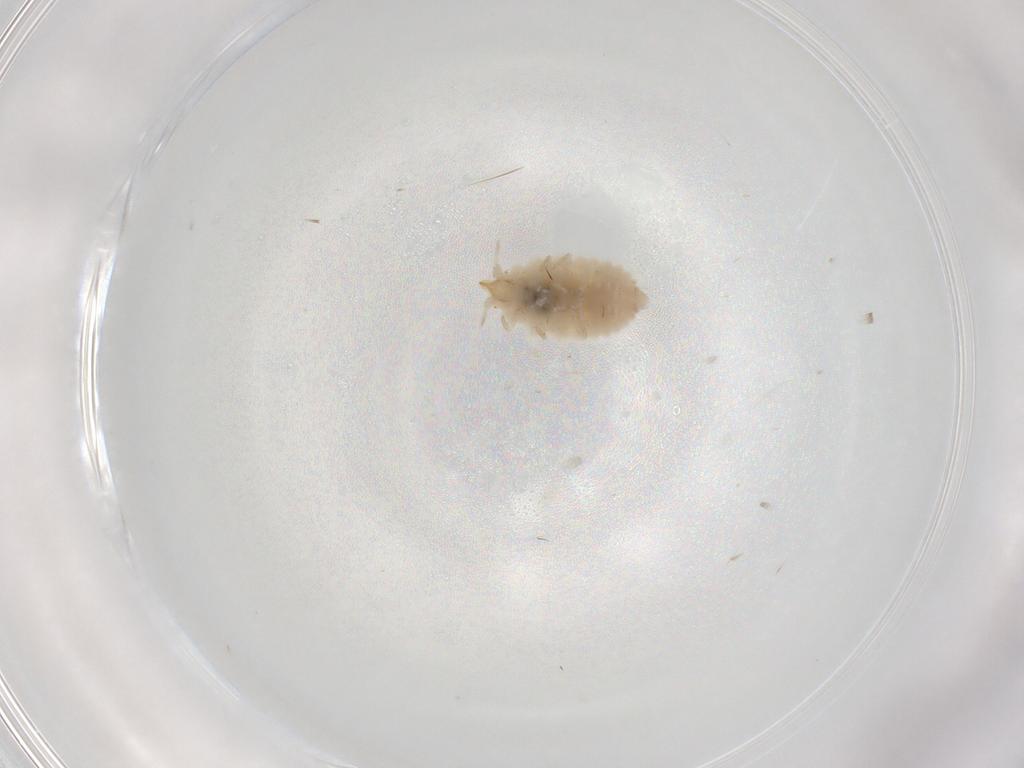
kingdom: Animalia
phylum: Arthropoda
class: Insecta
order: Neuroptera
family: Coniopterygidae
